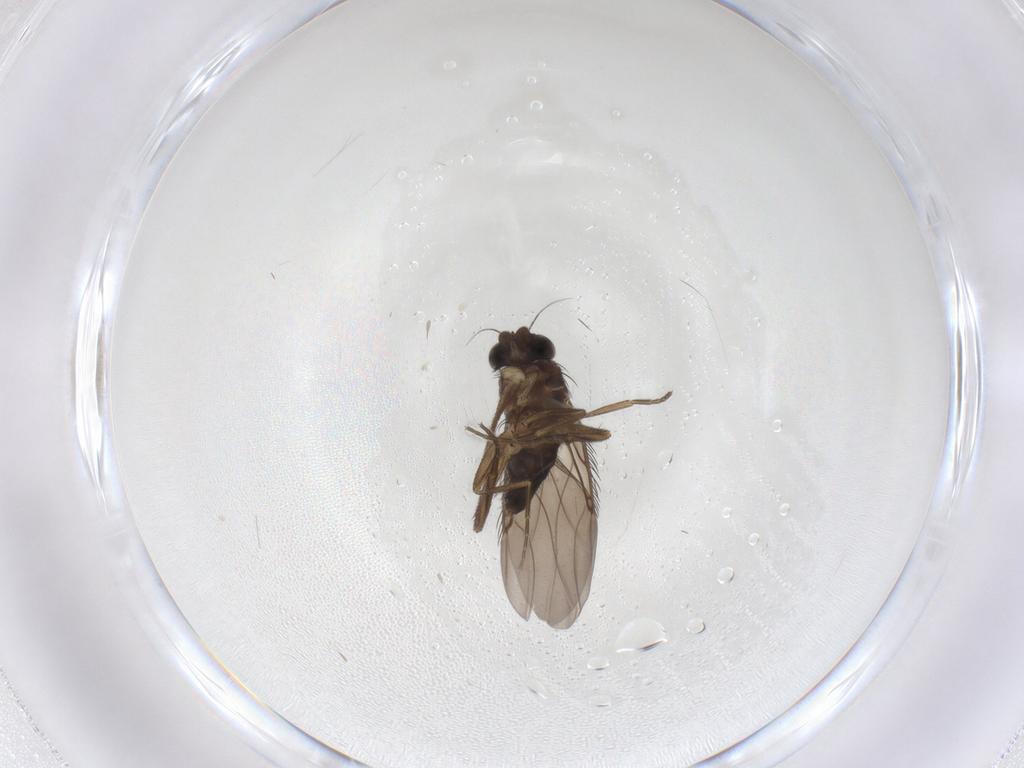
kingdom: Animalia
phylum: Arthropoda
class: Insecta
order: Diptera
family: Phoridae
